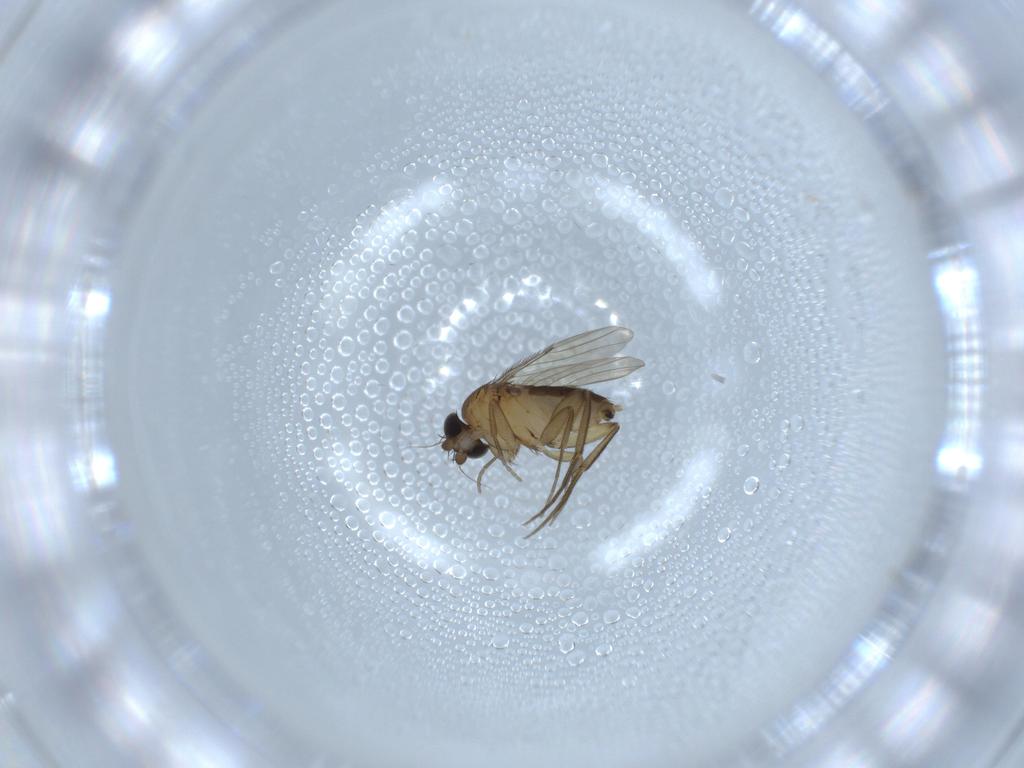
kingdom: Animalia
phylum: Arthropoda
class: Insecta
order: Diptera
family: Phoridae
